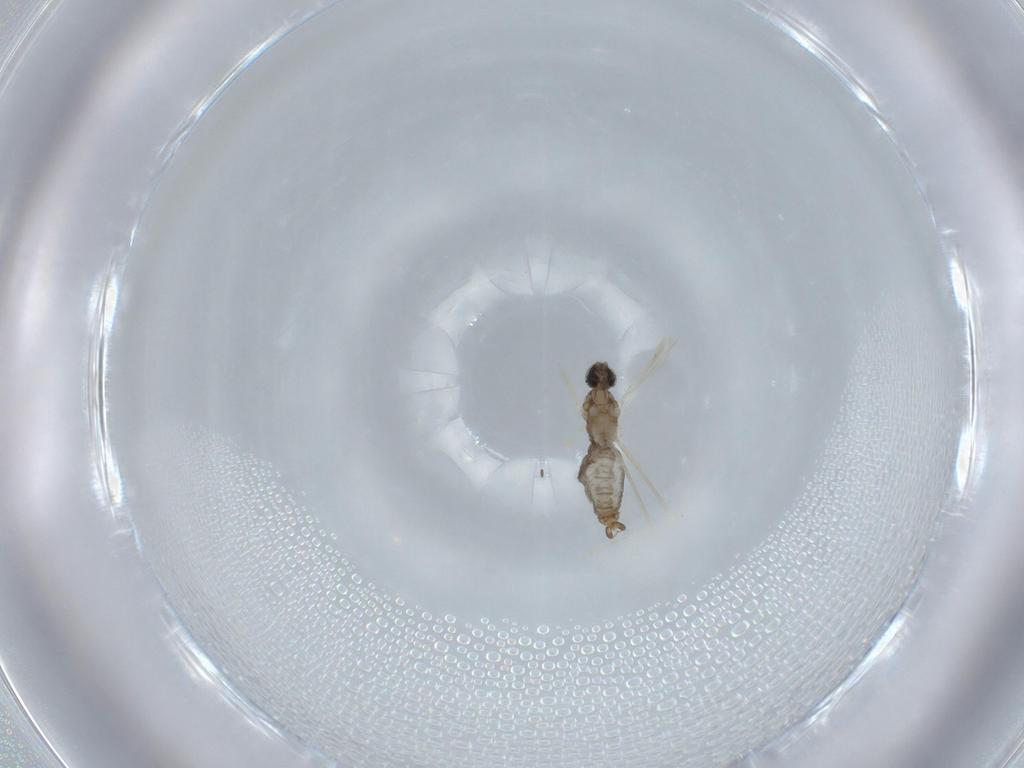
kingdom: Animalia
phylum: Arthropoda
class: Insecta
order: Diptera
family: Cecidomyiidae
